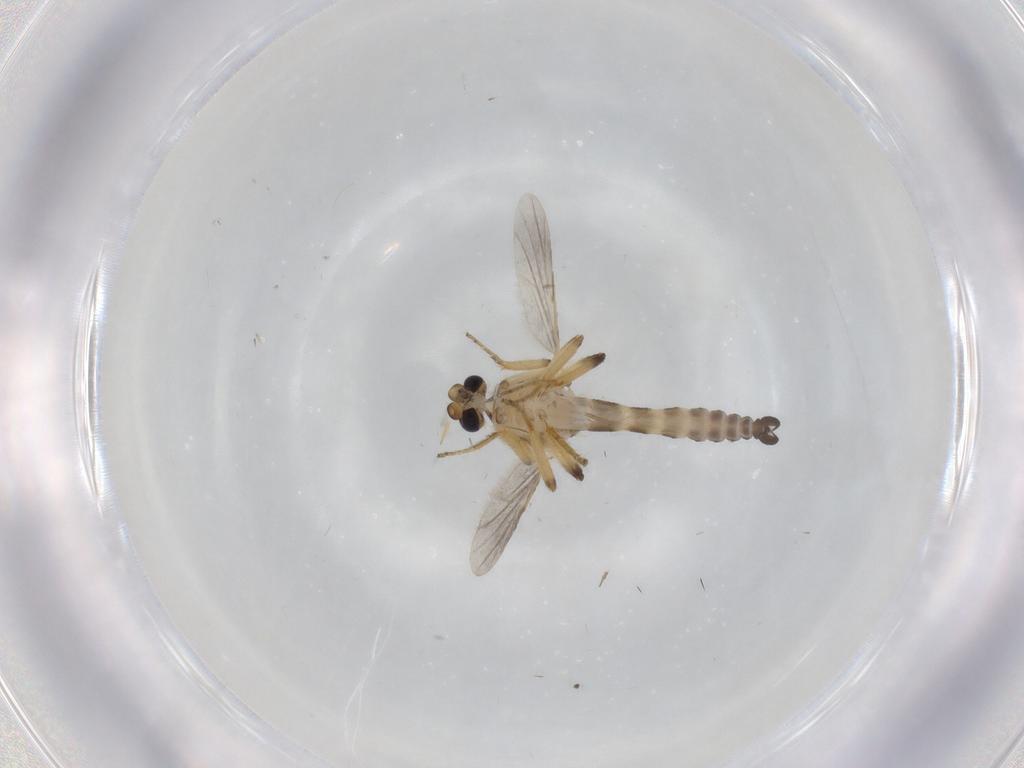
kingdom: Animalia
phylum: Arthropoda
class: Insecta
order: Diptera
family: Ceratopogonidae
